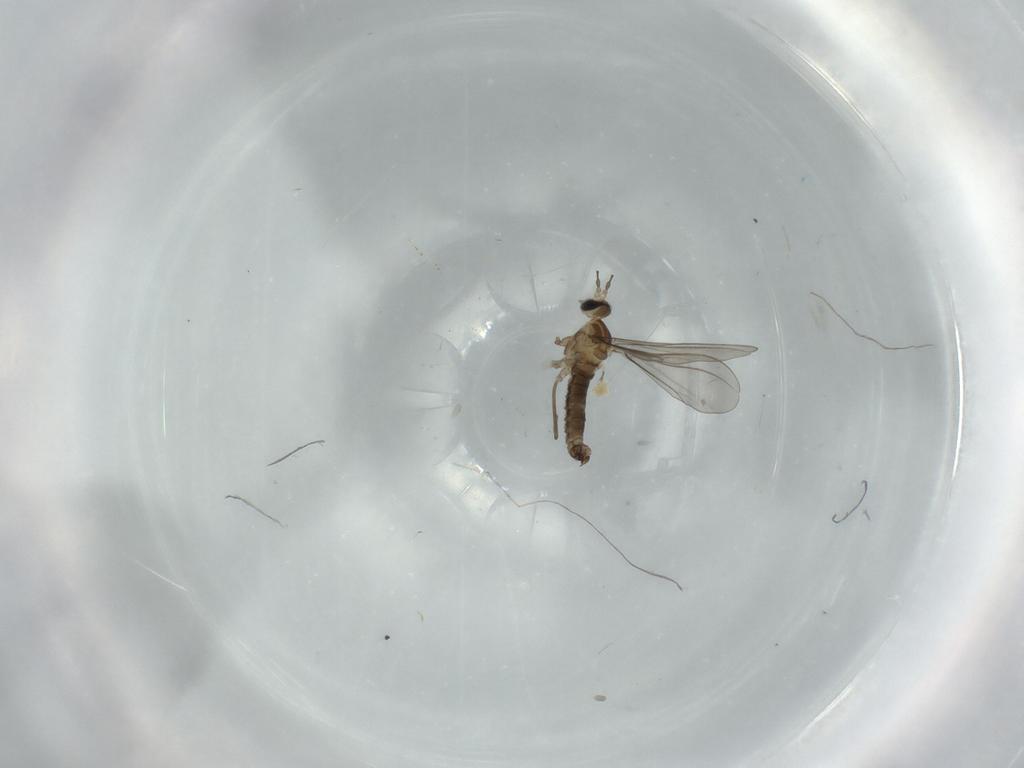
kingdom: Animalia
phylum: Arthropoda
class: Insecta
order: Diptera
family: Cecidomyiidae
